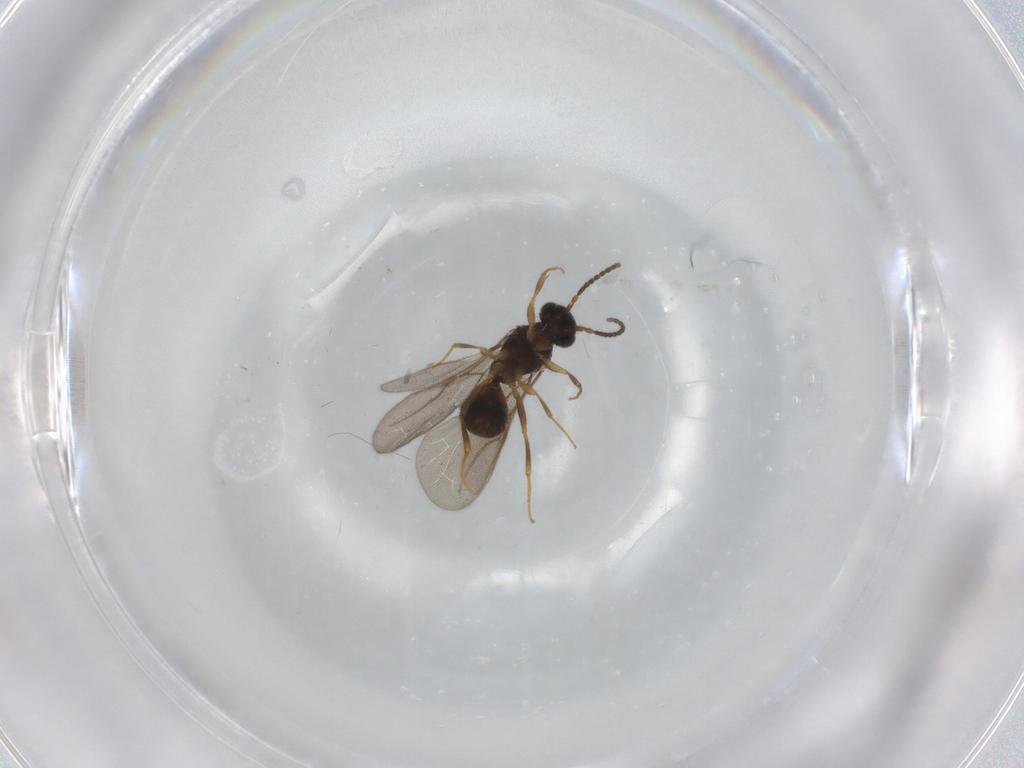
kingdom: Animalia
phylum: Arthropoda
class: Insecta
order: Hymenoptera
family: Bethylidae
